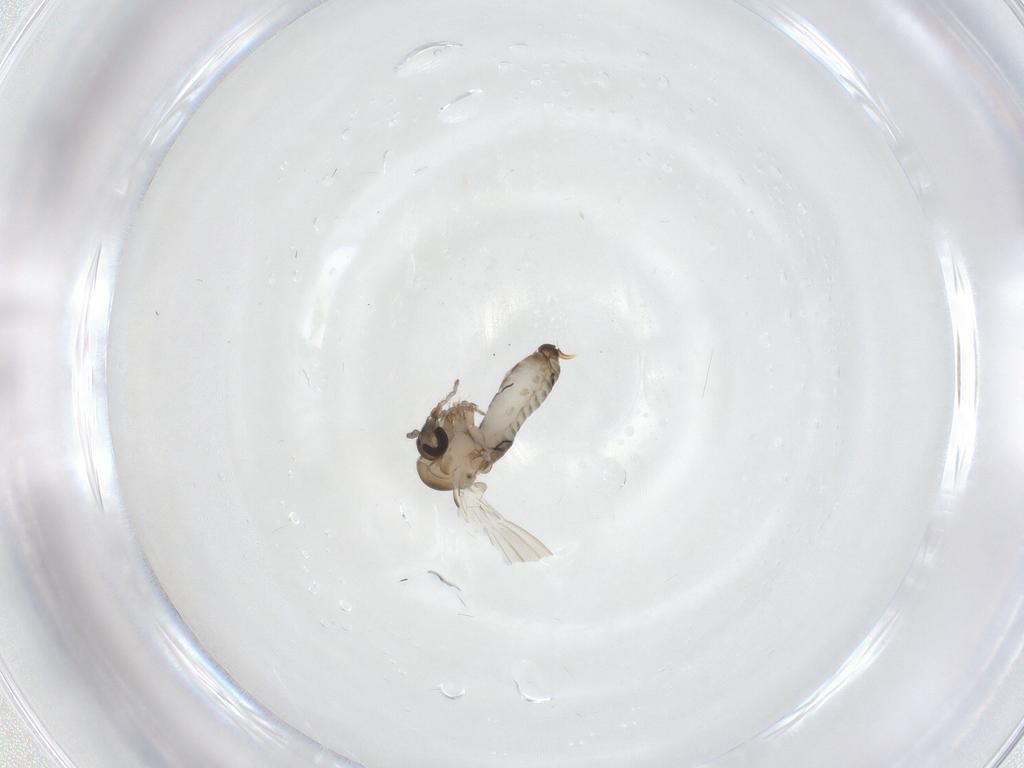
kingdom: Animalia
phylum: Arthropoda
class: Insecta
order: Diptera
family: Psychodidae
